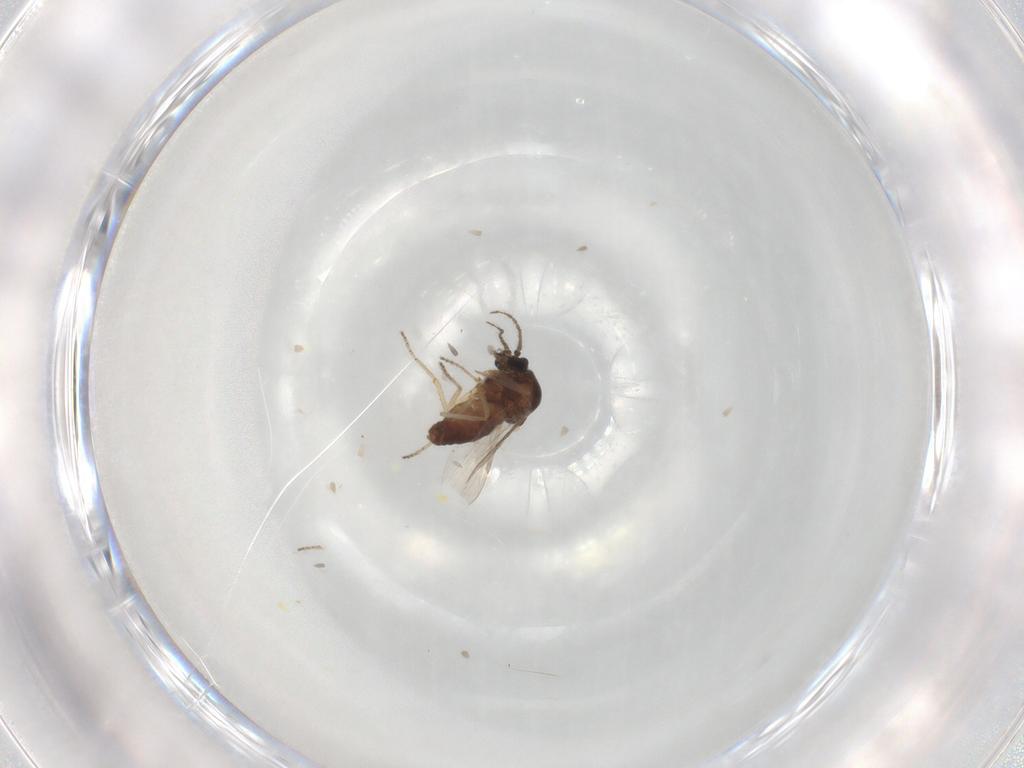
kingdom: Animalia
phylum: Arthropoda
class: Insecta
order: Diptera
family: Ceratopogonidae
